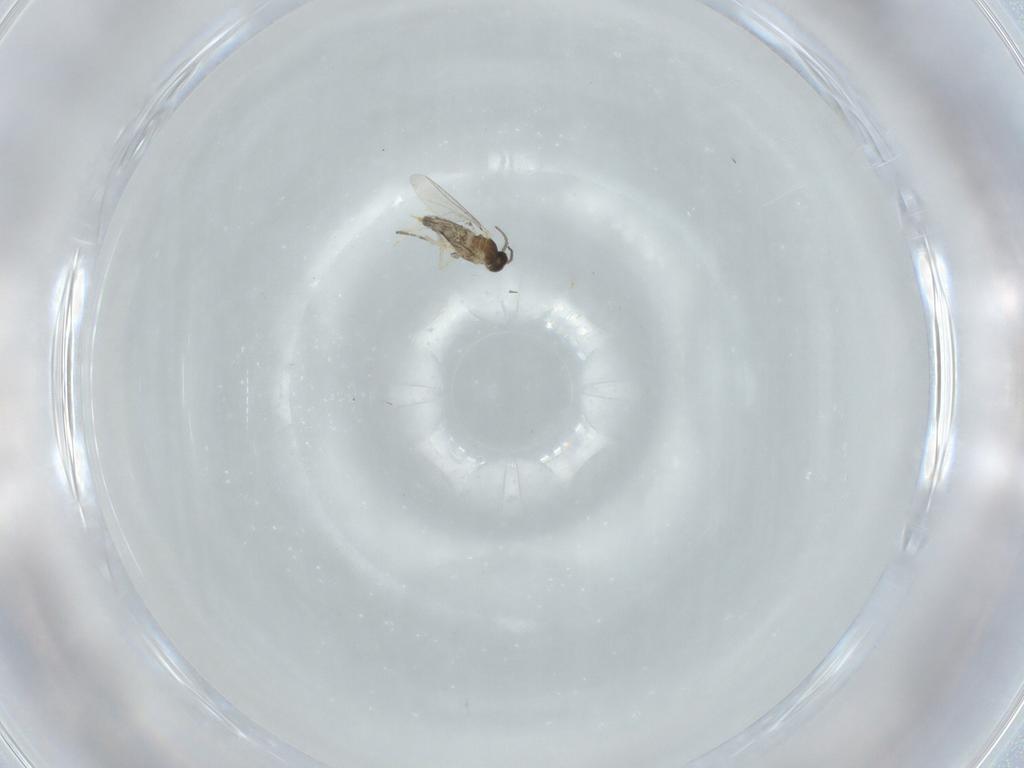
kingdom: Animalia
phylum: Arthropoda
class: Insecta
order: Diptera
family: Cecidomyiidae
